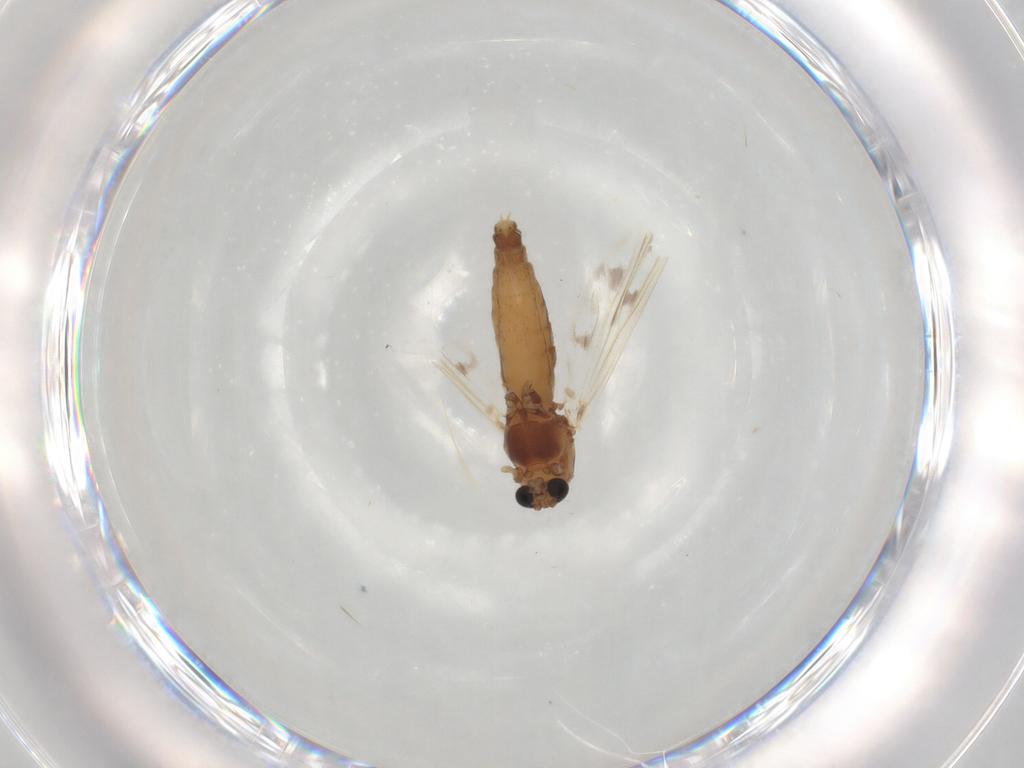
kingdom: Animalia
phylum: Arthropoda
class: Insecta
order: Diptera
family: Chironomidae
